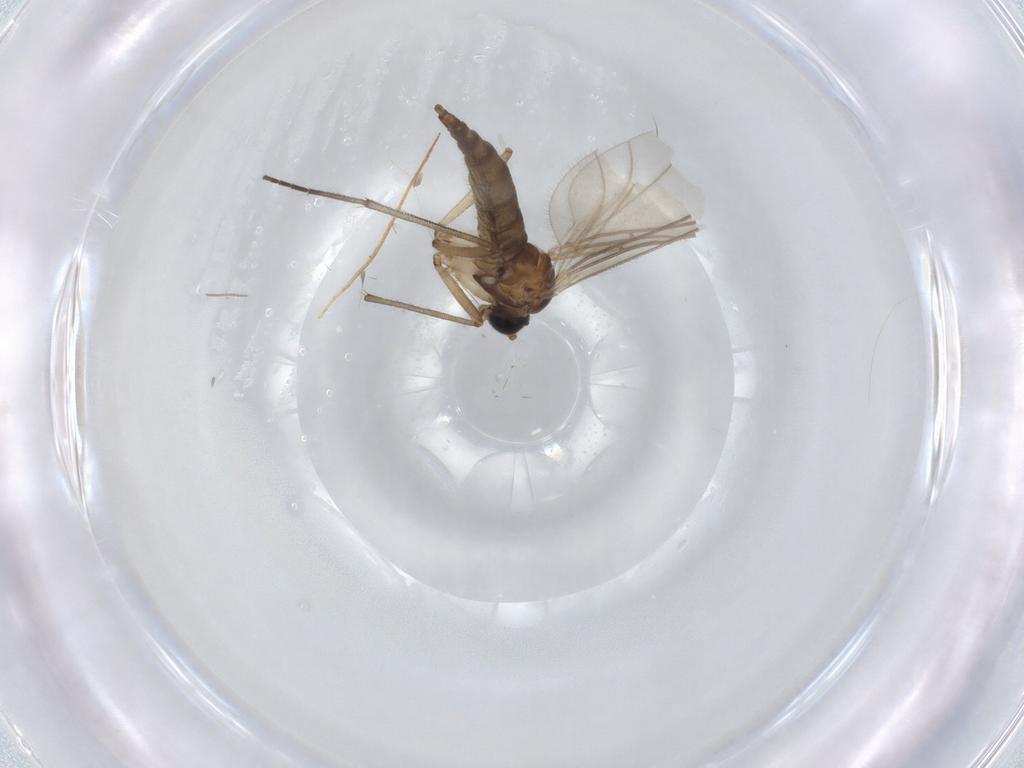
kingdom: Animalia
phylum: Arthropoda
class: Insecta
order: Diptera
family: Sciaridae
